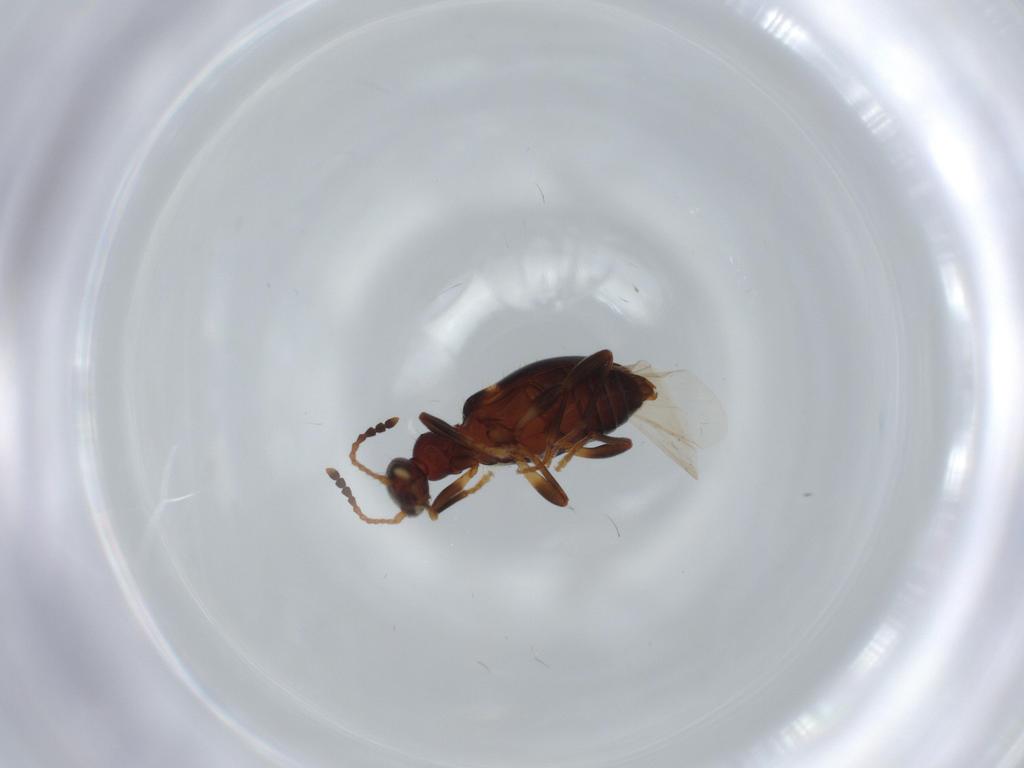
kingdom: Animalia
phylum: Arthropoda
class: Insecta
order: Coleoptera
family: Anthicidae
